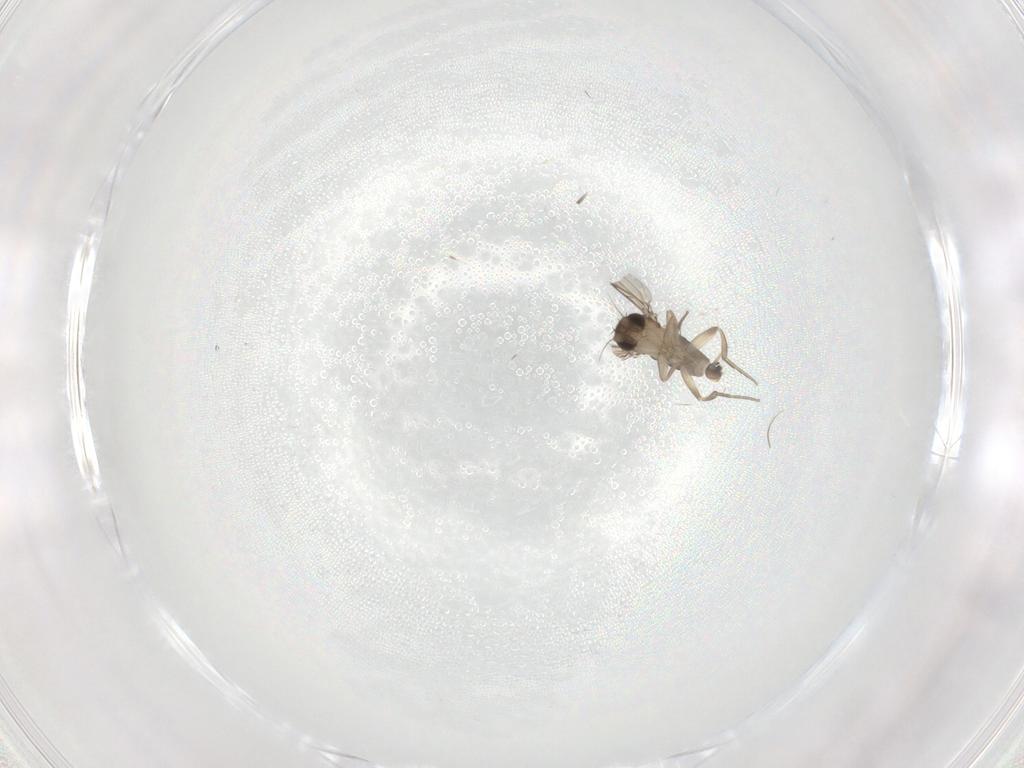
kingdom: Animalia
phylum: Arthropoda
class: Insecta
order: Diptera
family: Phoridae
